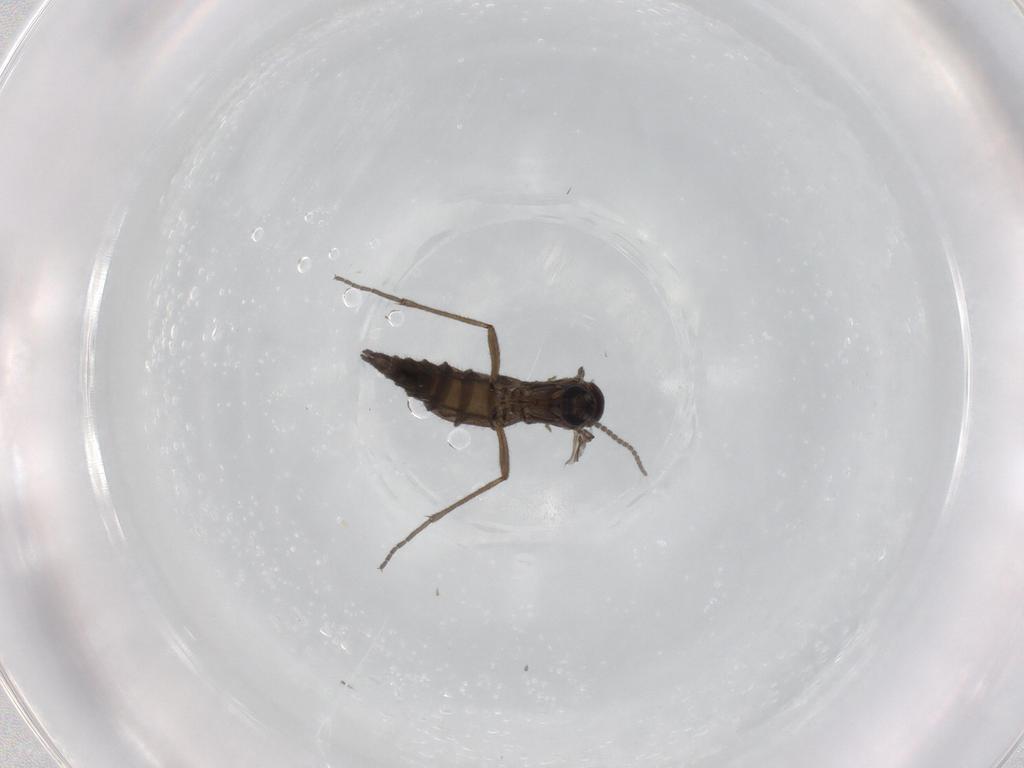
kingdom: Animalia
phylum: Arthropoda
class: Insecta
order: Diptera
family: Sciaridae
